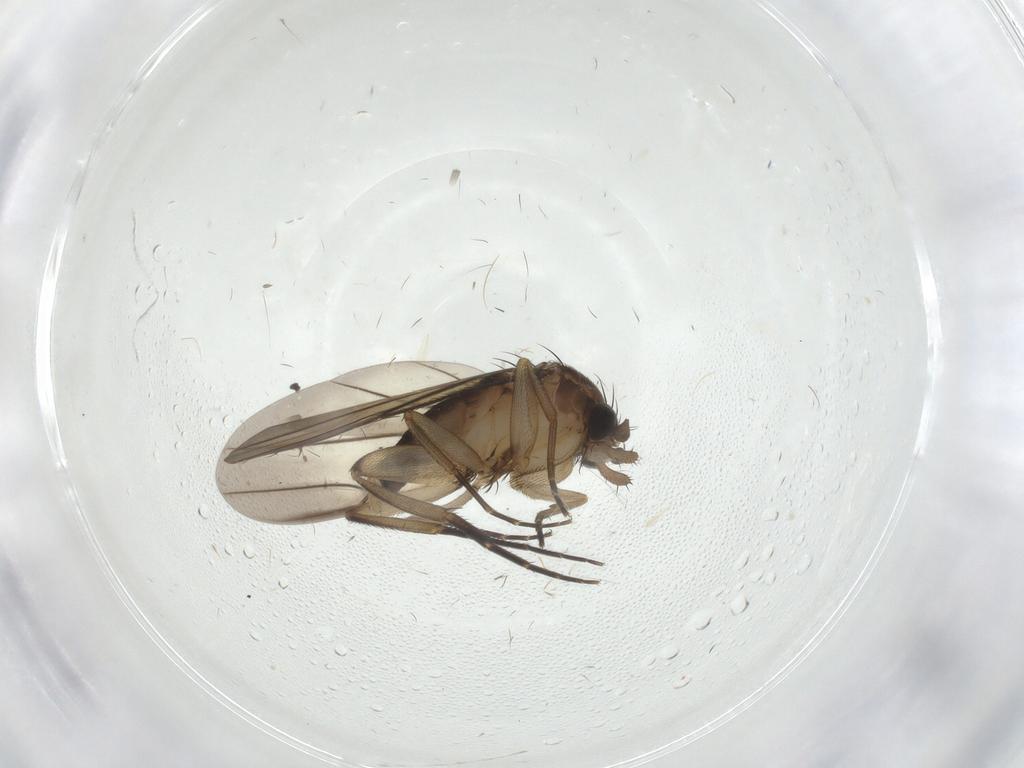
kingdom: Animalia
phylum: Arthropoda
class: Insecta
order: Diptera
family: Phoridae
